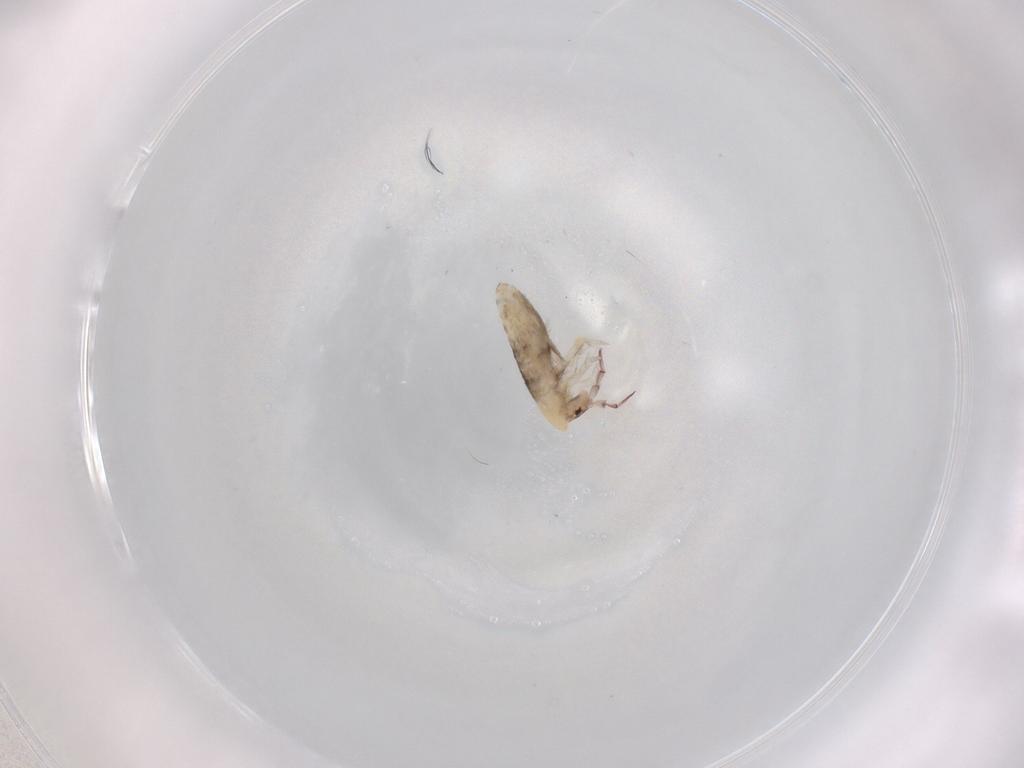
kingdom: Animalia
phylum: Arthropoda
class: Collembola
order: Entomobryomorpha
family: Entomobryidae
